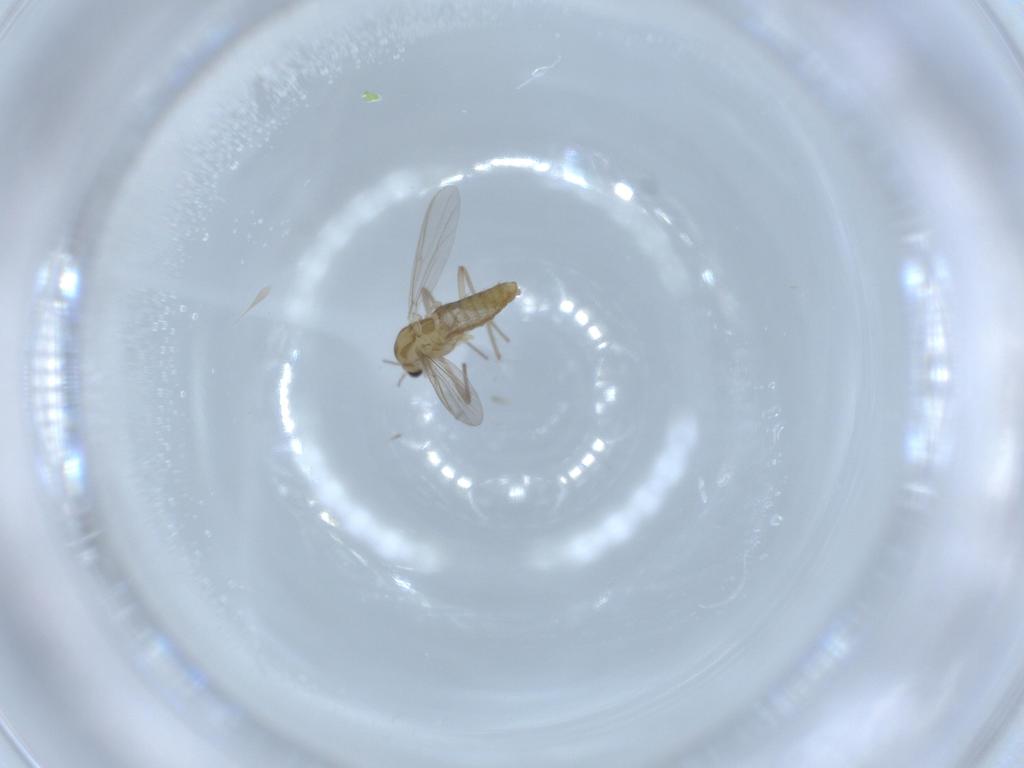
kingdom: Animalia
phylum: Arthropoda
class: Insecta
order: Diptera
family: Chironomidae
